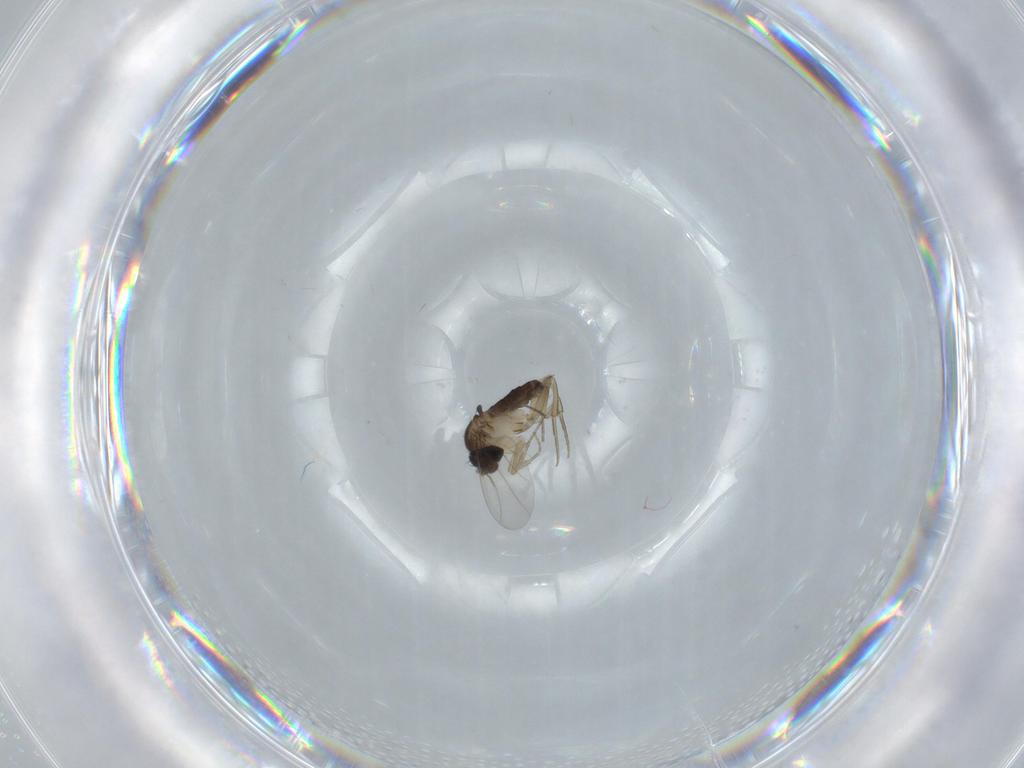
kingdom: Animalia
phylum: Arthropoda
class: Insecta
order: Diptera
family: Phoridae
